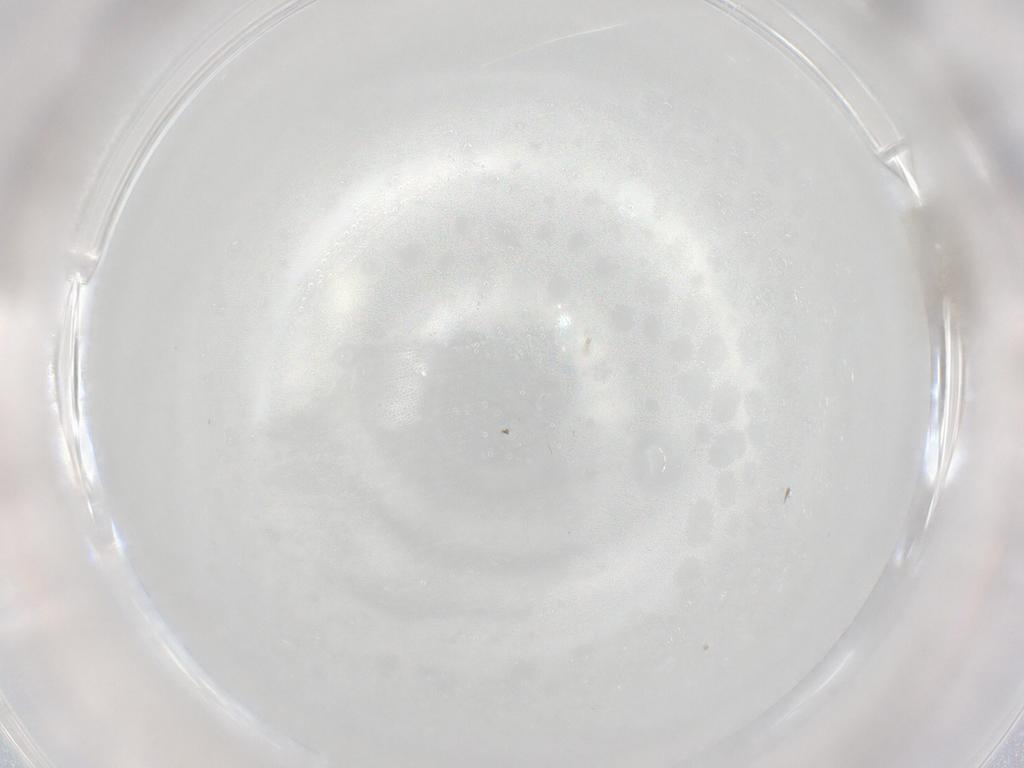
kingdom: Animalia
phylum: Arthropoda
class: Insecta
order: Diptera
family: Cecidomyiidae
